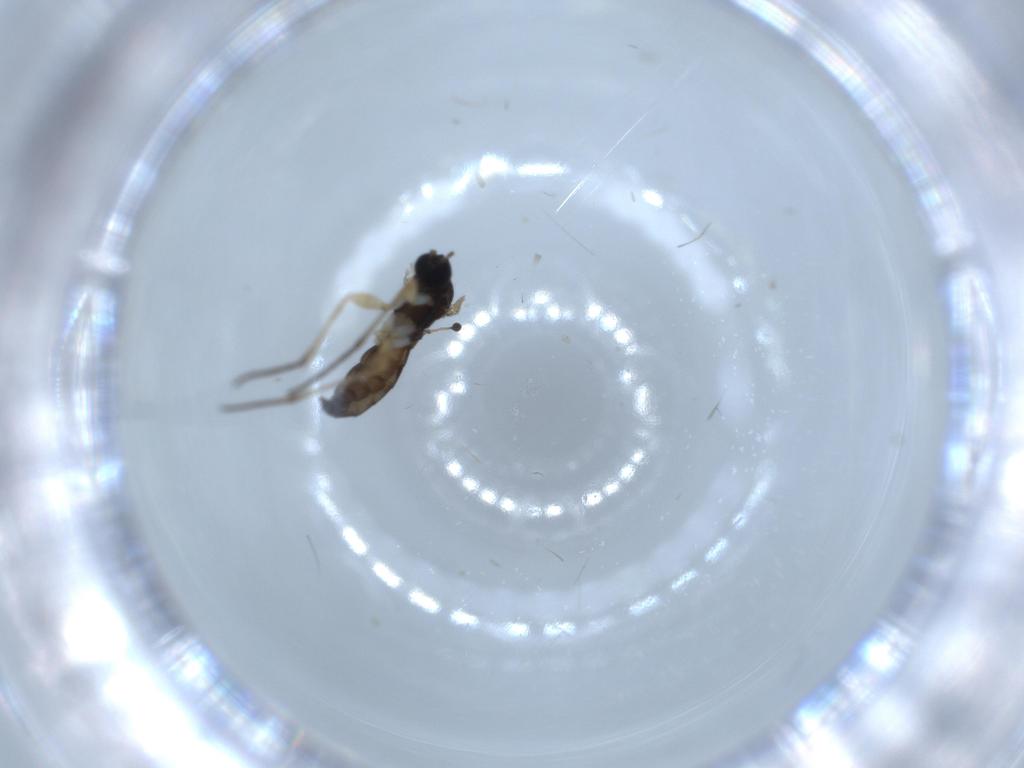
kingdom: Animalia
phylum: Arthropoda
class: Insecta
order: Diptera
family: Sciaridae
